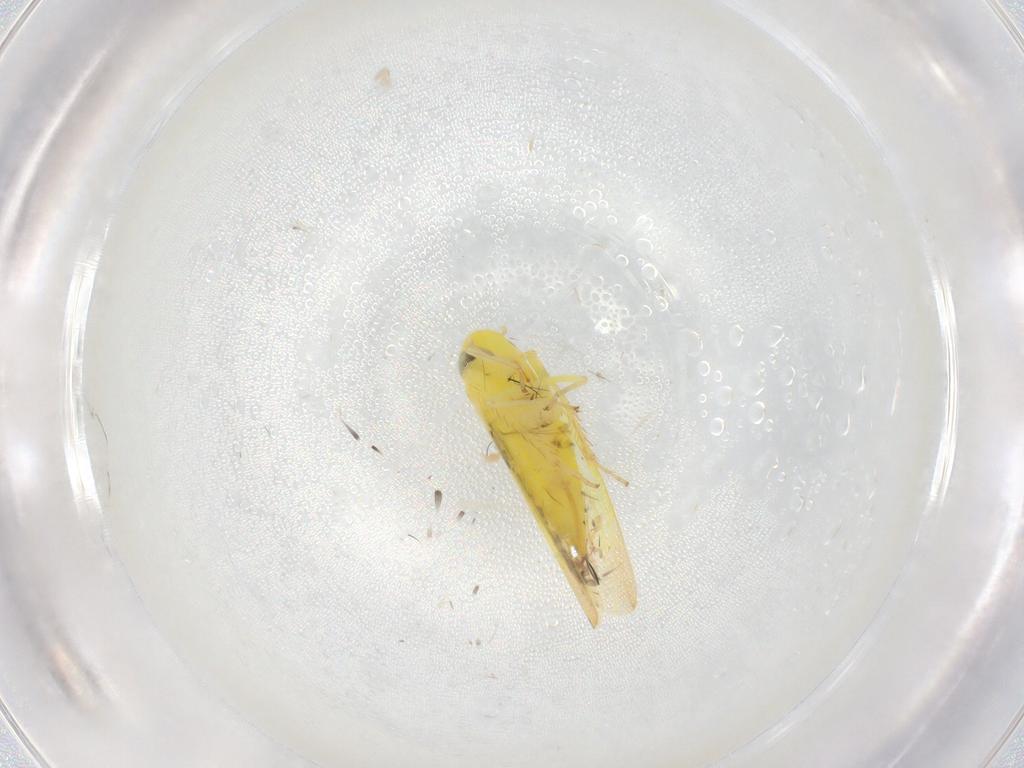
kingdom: Animalia
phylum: Arthropoda
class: Insecta
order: Hemiptera
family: Cicadellidae
